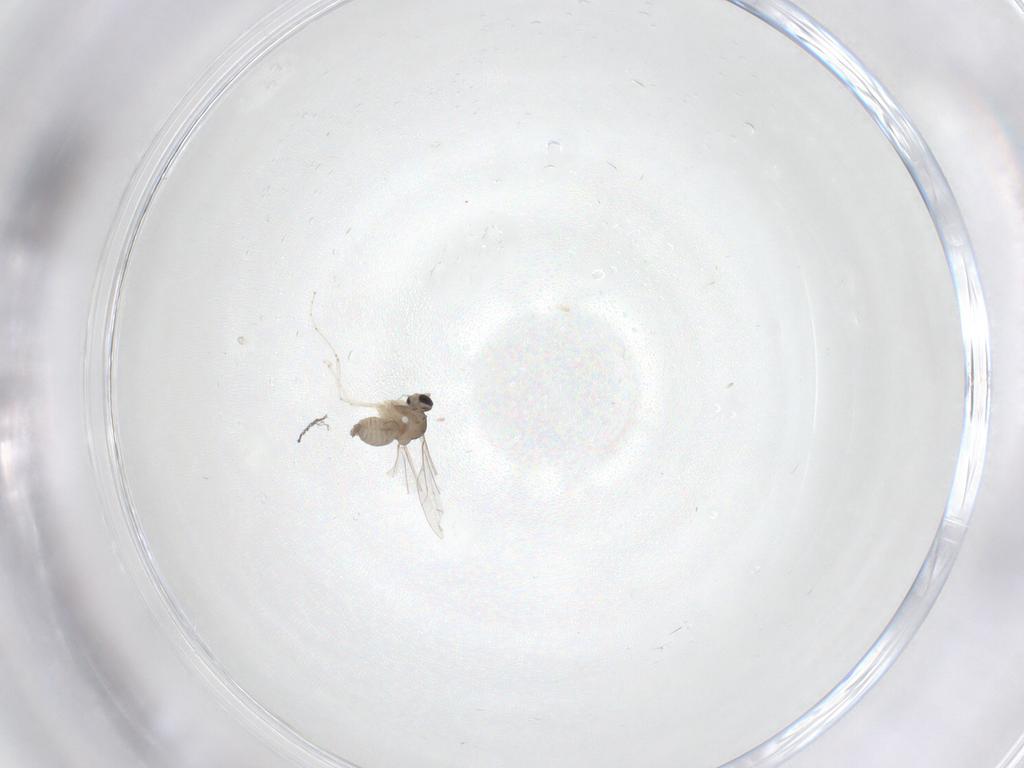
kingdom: Animalia
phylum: Arthropoda
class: Insecta
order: Diptera
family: Cecidomyiidae
